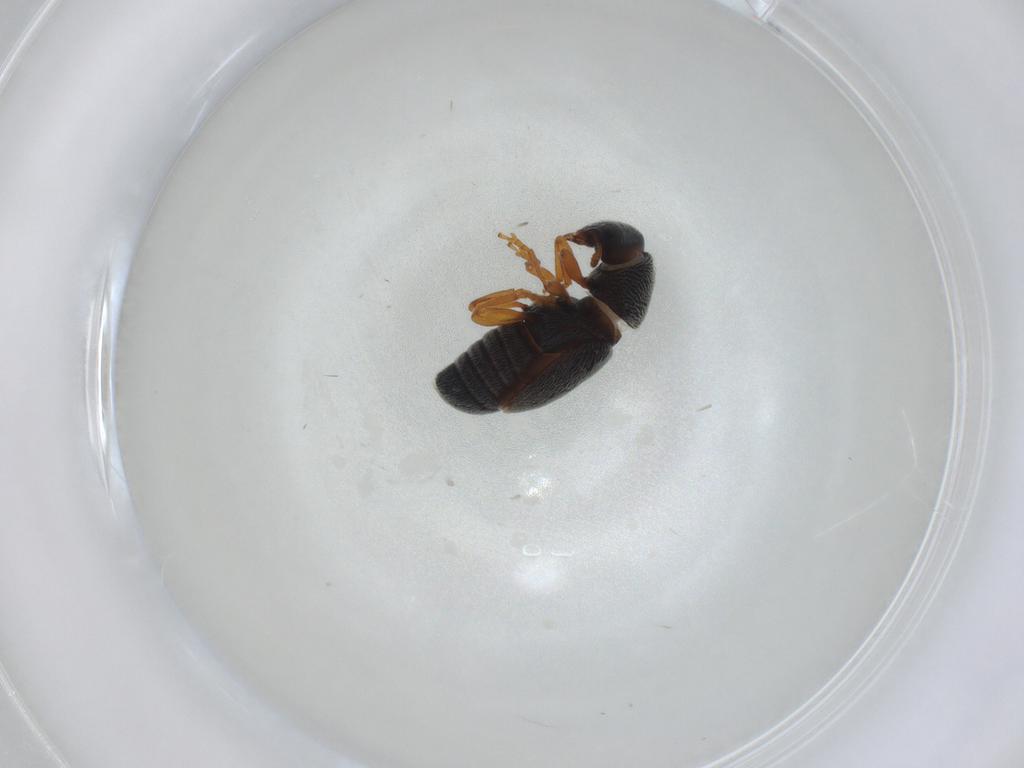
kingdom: Animalia
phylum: Arthropoda
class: Insecta
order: Coleoptera
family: Anthribidae
